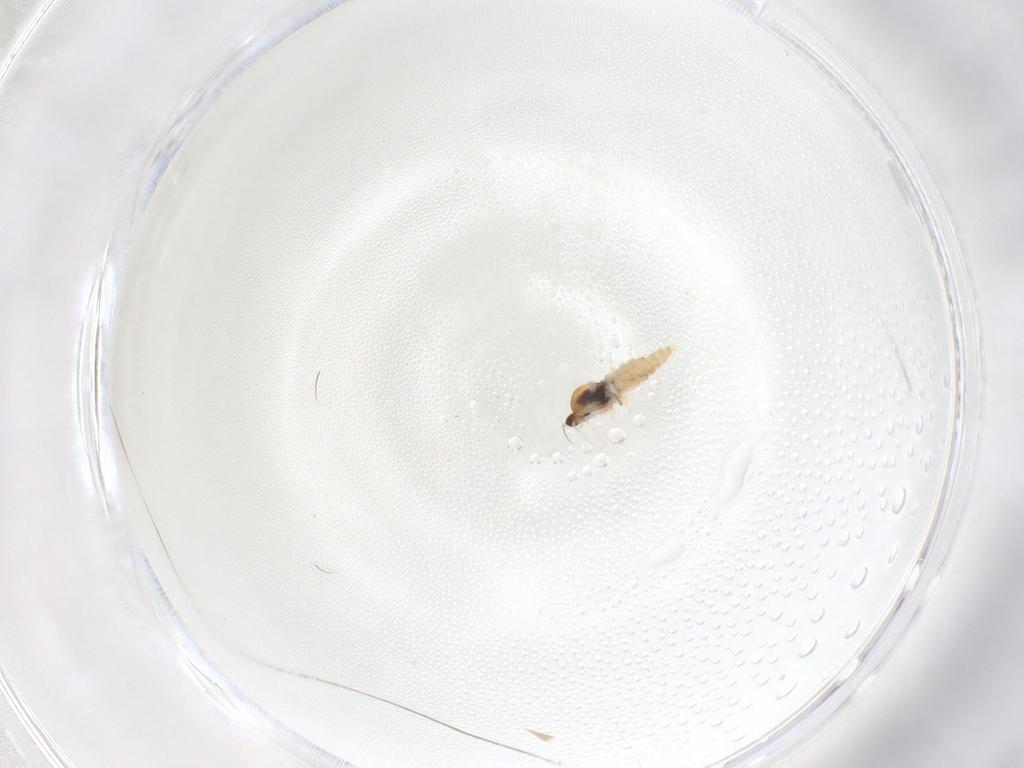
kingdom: Animalia
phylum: Arthropoda
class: Insecta
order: Diptera
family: Cecidomyiidae
